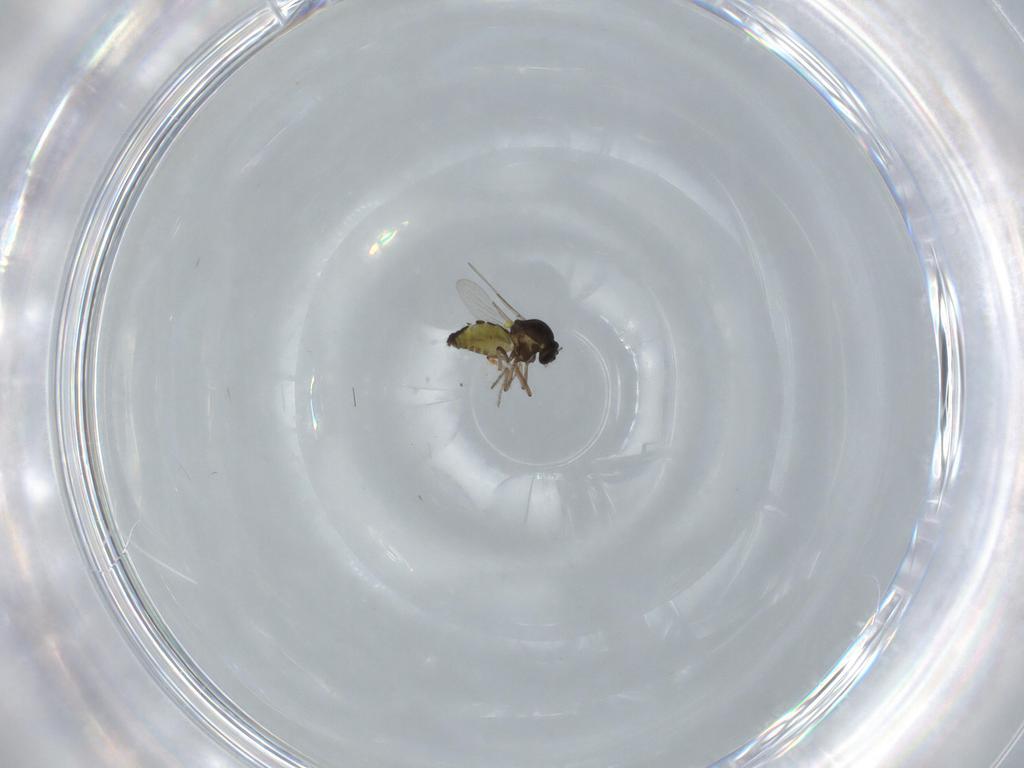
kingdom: Animalia
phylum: Arthropoda
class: Insecta
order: Diptera
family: Ceratopogonidae
